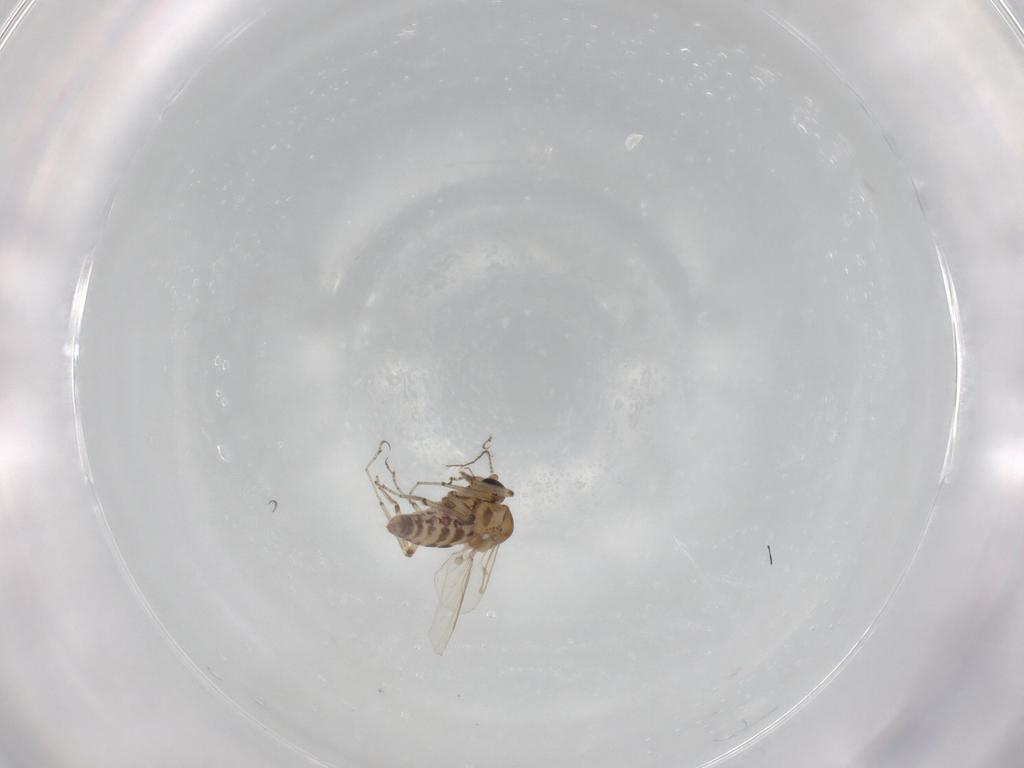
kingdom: Animalia
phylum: Arthropoda
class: Insecta
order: Diptera
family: Ceratopogonidae
